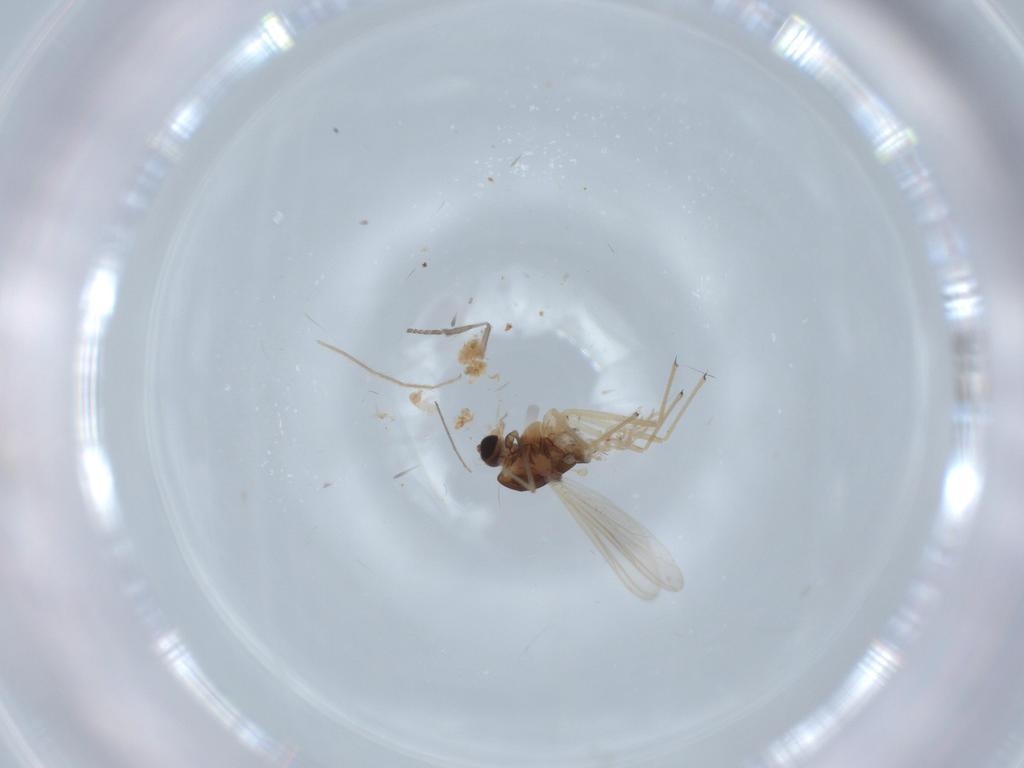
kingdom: Animalia
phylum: Arthropoda
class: Insecta
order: Diptera
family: Chironomidae
